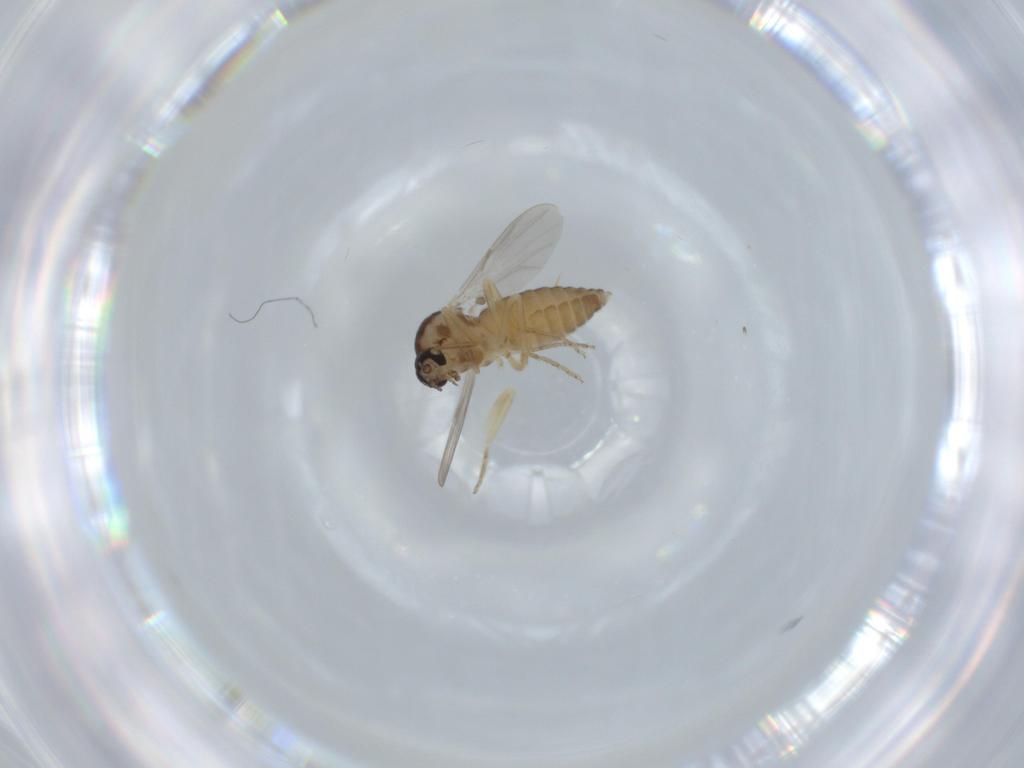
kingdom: Animalia
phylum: Arthropoda
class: Insecta
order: Diptera
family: Ceratopogonidae
